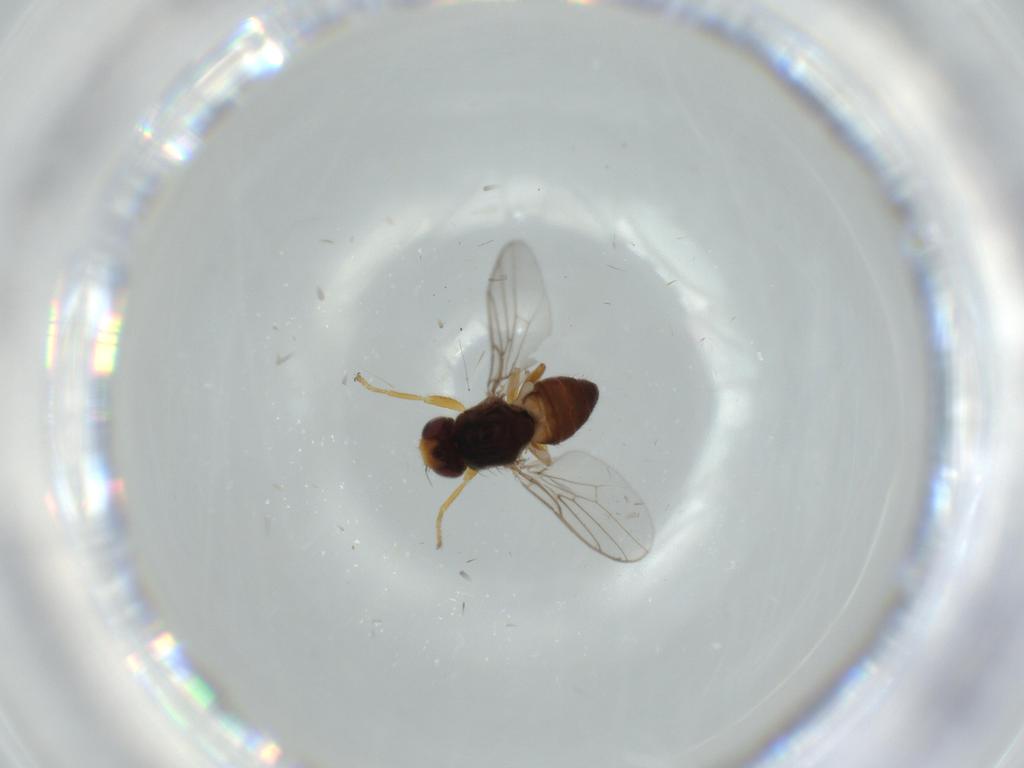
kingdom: Animalia
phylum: Arthropoda
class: Insecta
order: Diptera
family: Chloropidae
